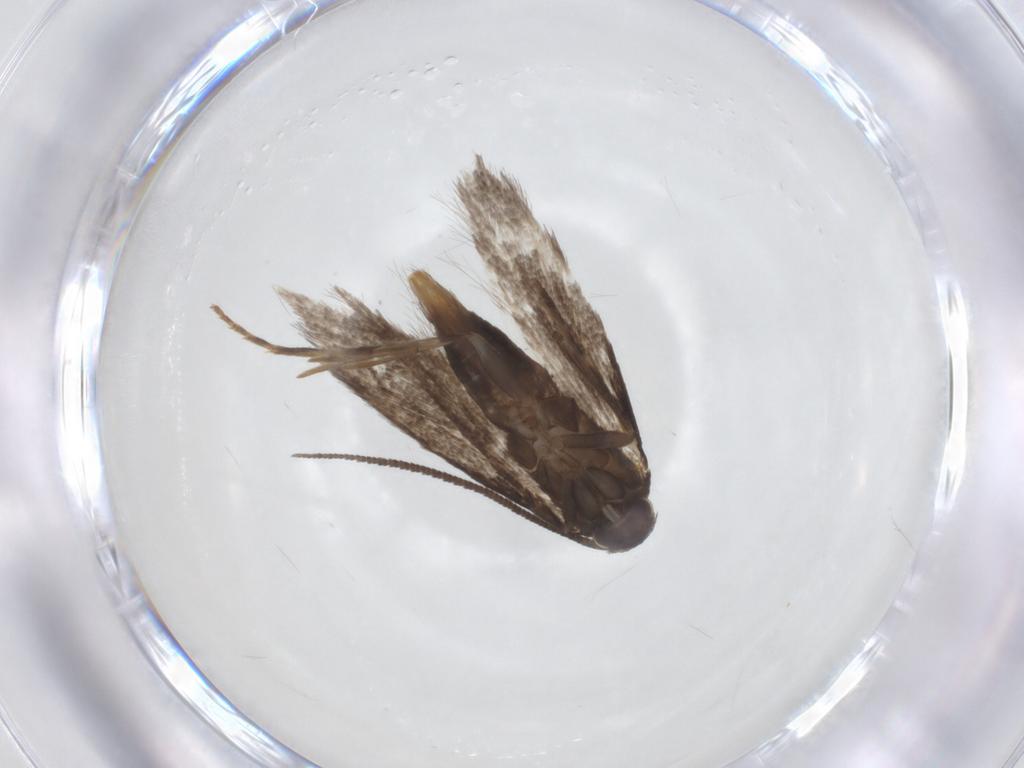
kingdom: Animalia
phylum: Arthropoda
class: Insecta
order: Lepidoptera
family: Elachistidae
